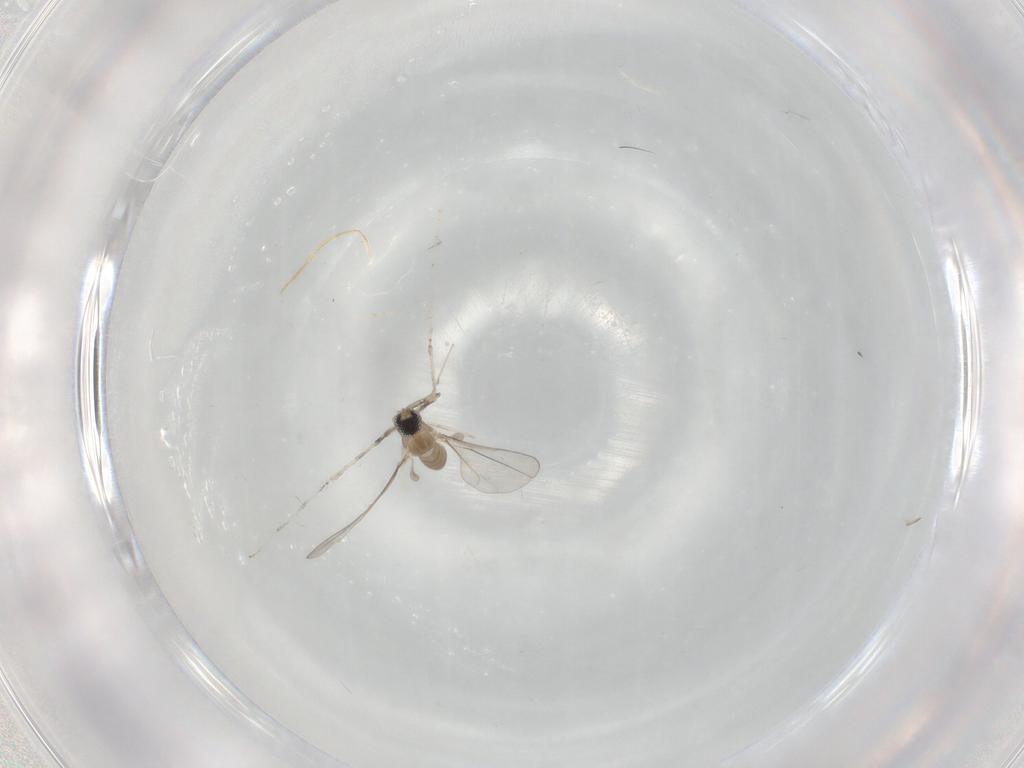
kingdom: Animalia
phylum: Arthropoda
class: Insecta
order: Diptera
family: Cecidomyiidae
